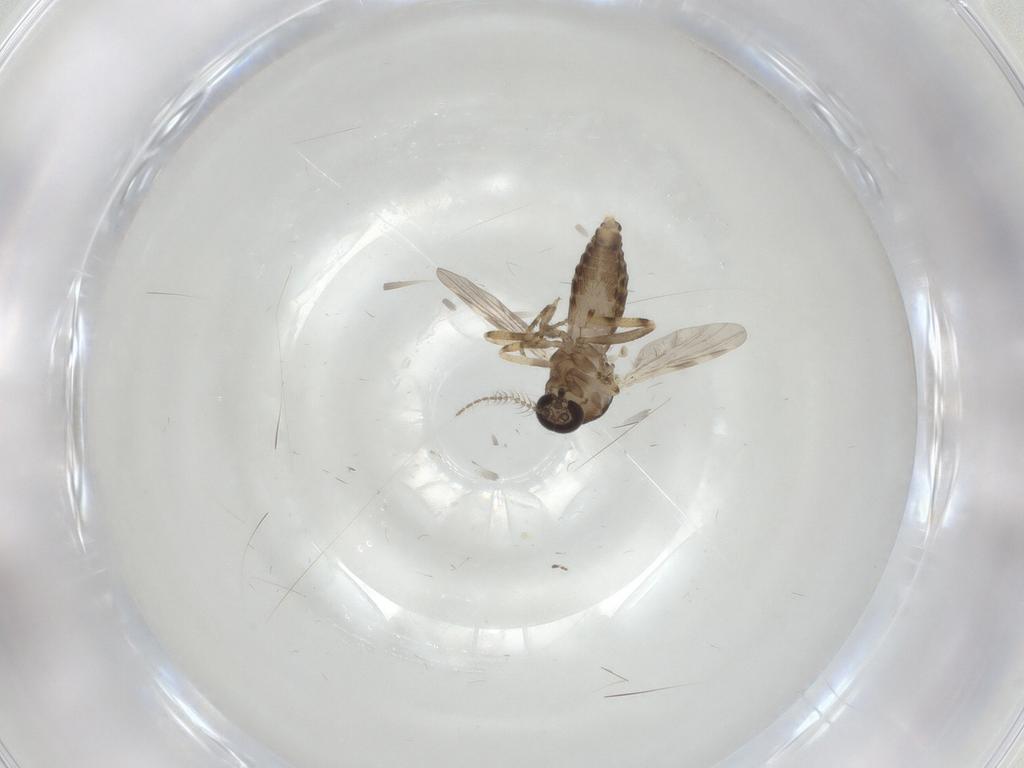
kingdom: Animalia
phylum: Arthropoda
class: Insecta
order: Diptera
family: Ceratopogonidae
